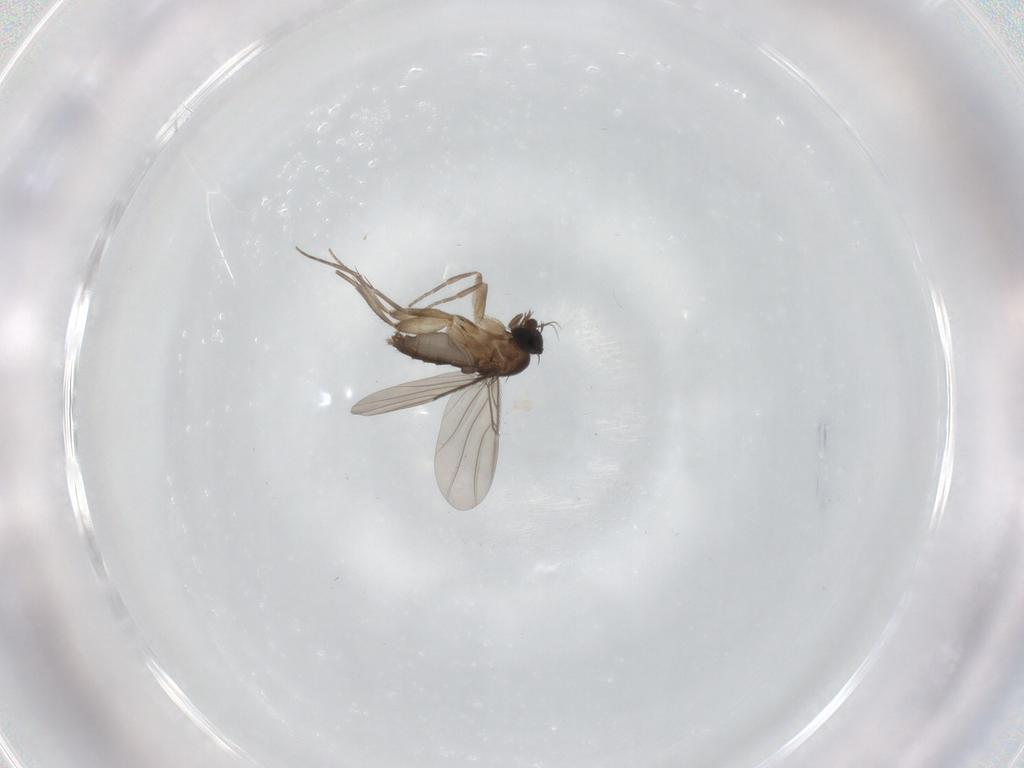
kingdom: Animalia
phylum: Arthropoda
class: Insecta
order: Diptera
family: Phoridae
